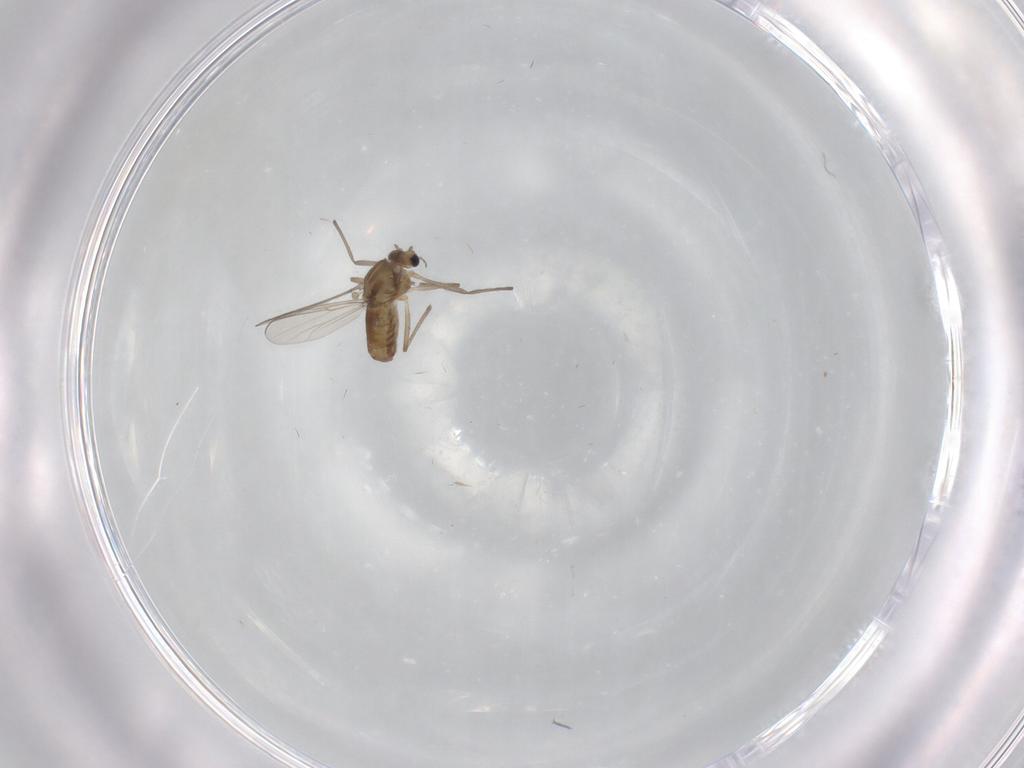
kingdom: Animalia
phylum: Arthropoda
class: Insecta
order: Diptera
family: Chironomidae
